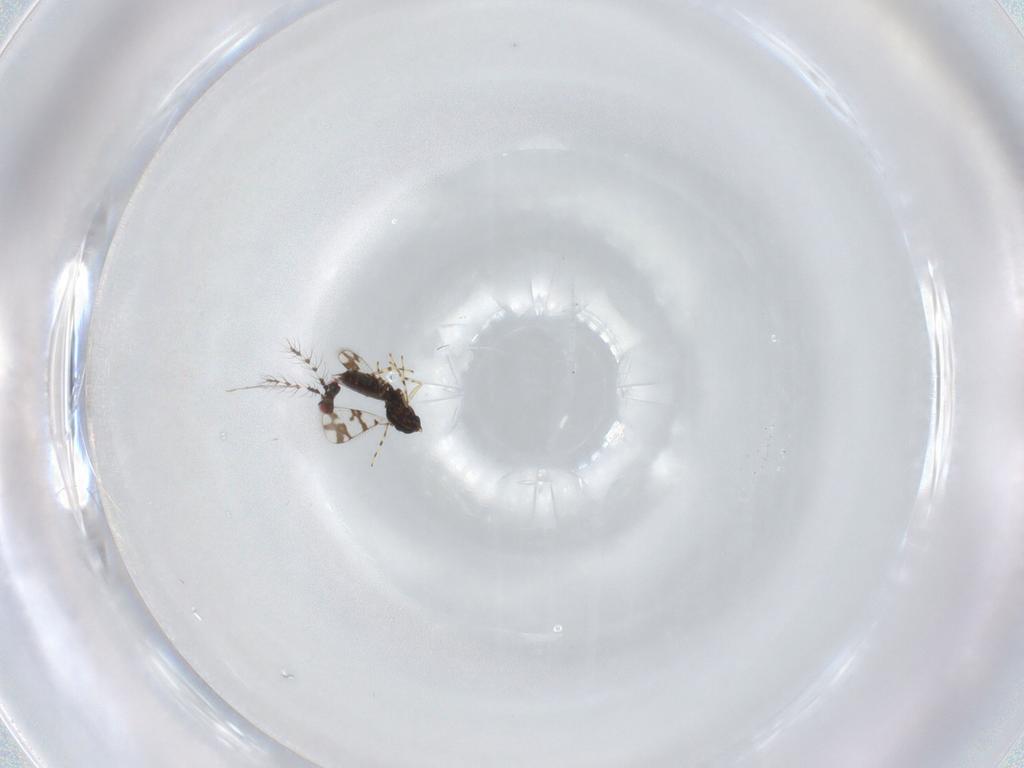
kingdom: Animalia
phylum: Arthropoda
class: Insecta
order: Hymenoptera
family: Eulophidae
